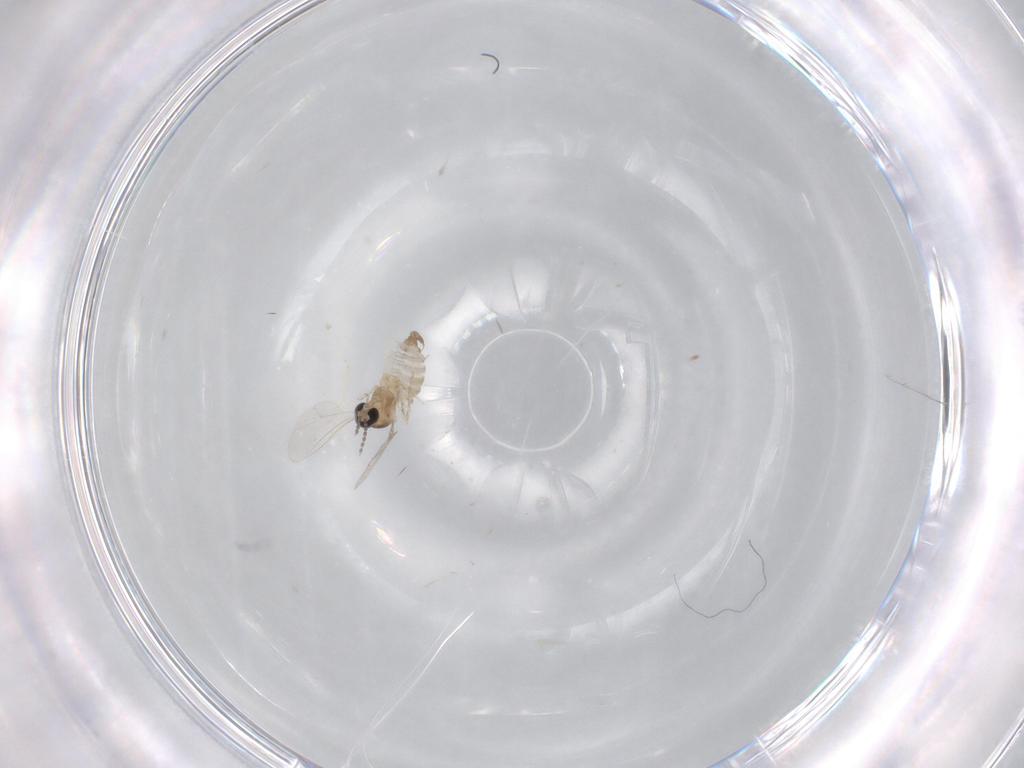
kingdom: Animalia
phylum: Arthropoda
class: Insecta
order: Diptera
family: Hybotidae
